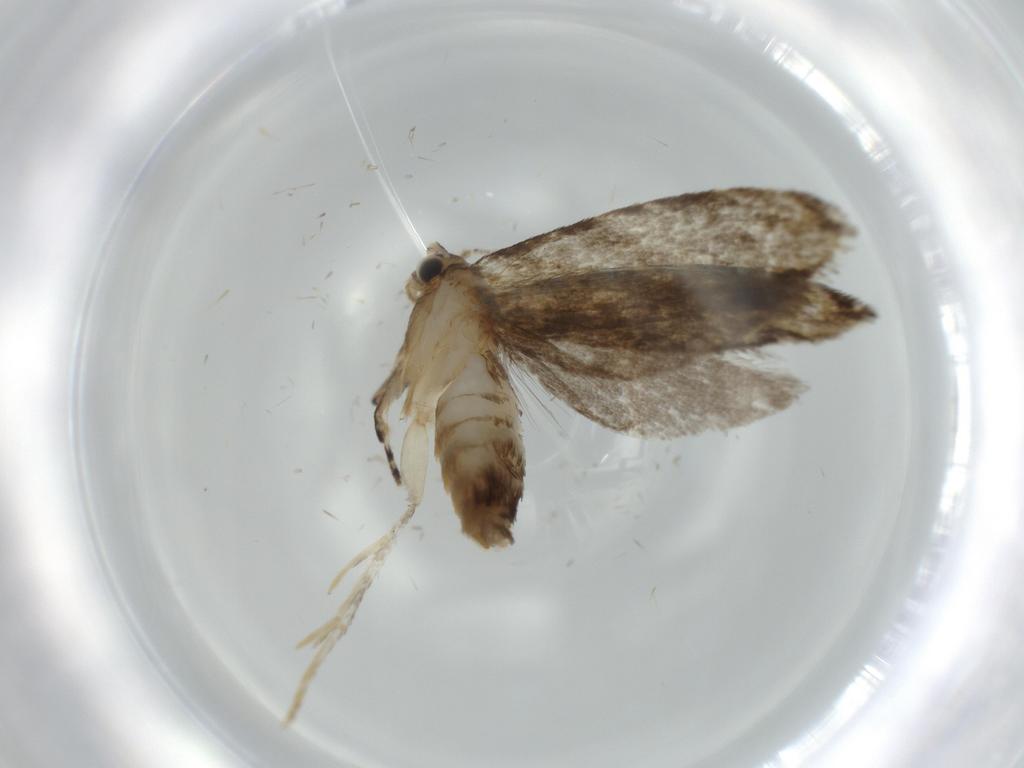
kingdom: Animalia
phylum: Arthropoda
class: Insecta
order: Lepidoptera
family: Tineidae
